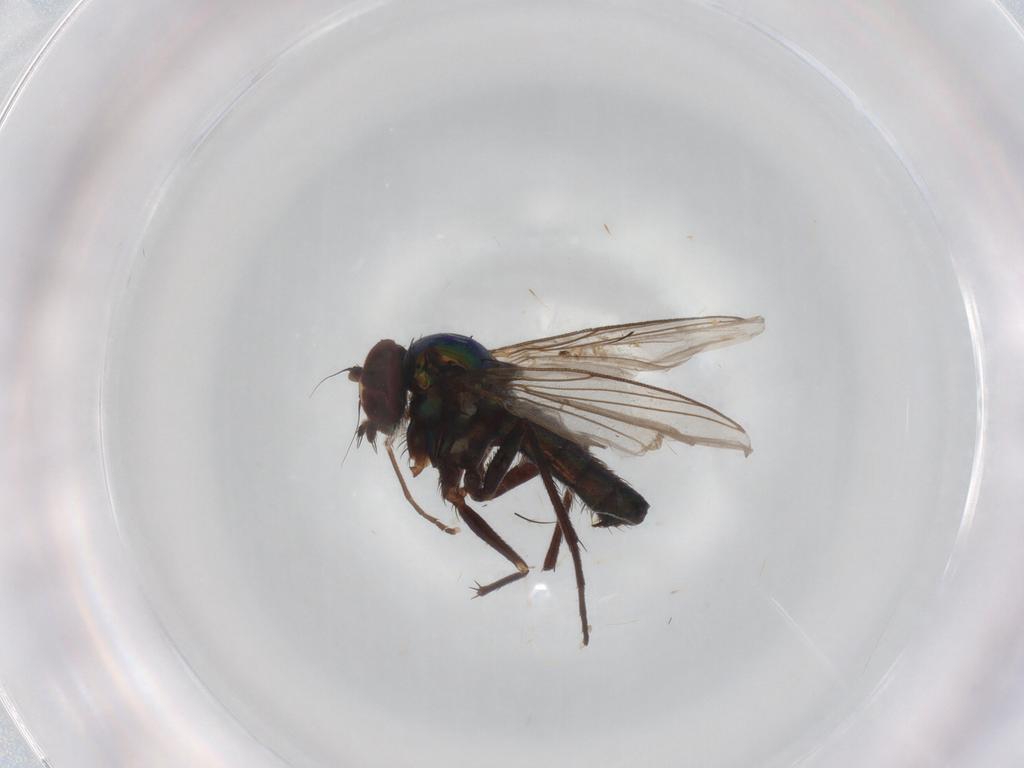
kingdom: Animalia
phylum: Arthropoda
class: Insecta
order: Diptera
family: Dolichopodidae
